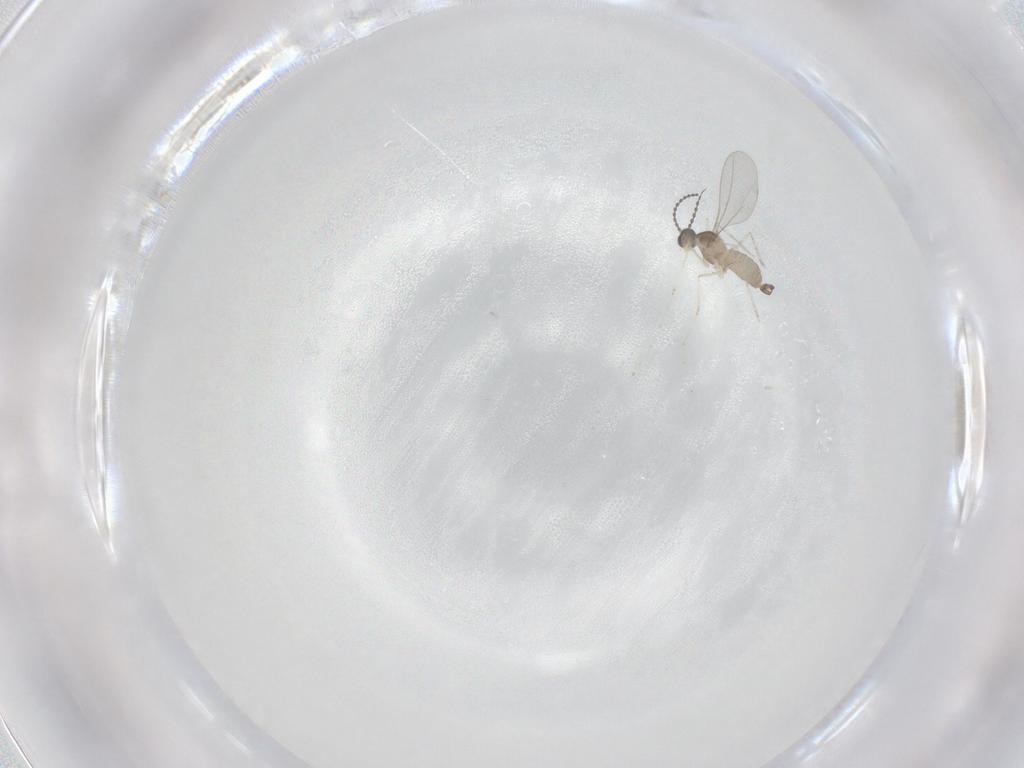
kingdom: Animalia
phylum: Arthropoda
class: Insecta
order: Diptera
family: Cecidomyiidae
